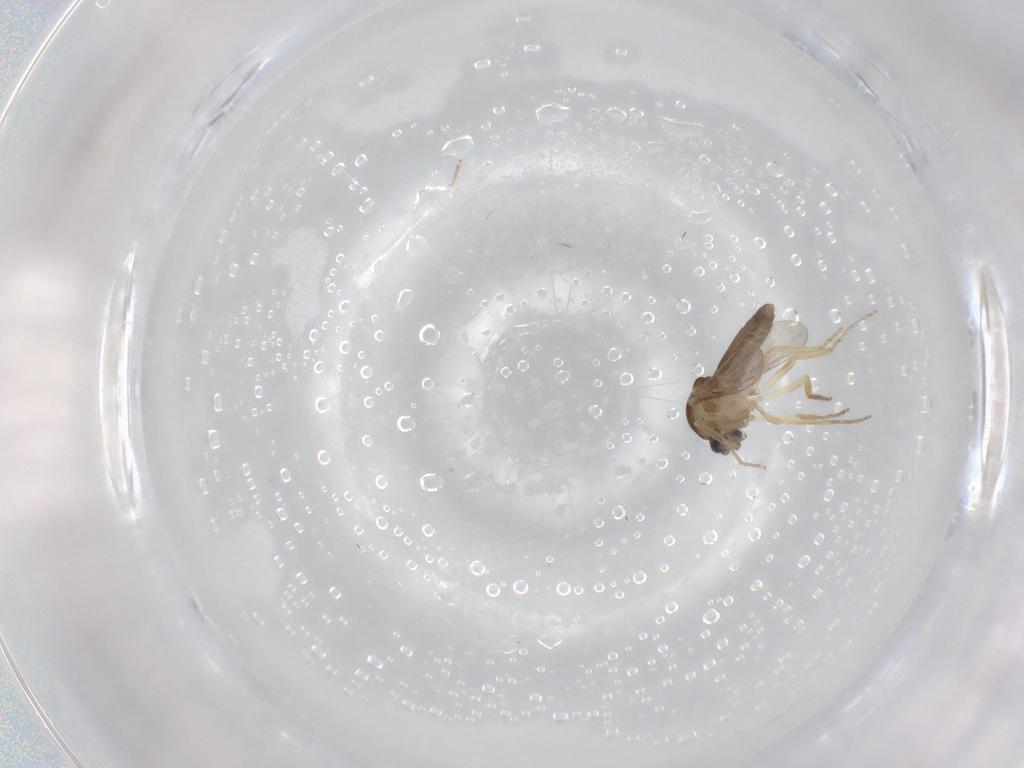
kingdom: Animalia
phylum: Arthropoda
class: Insecta
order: Diptera
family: Ceratopogonidae
